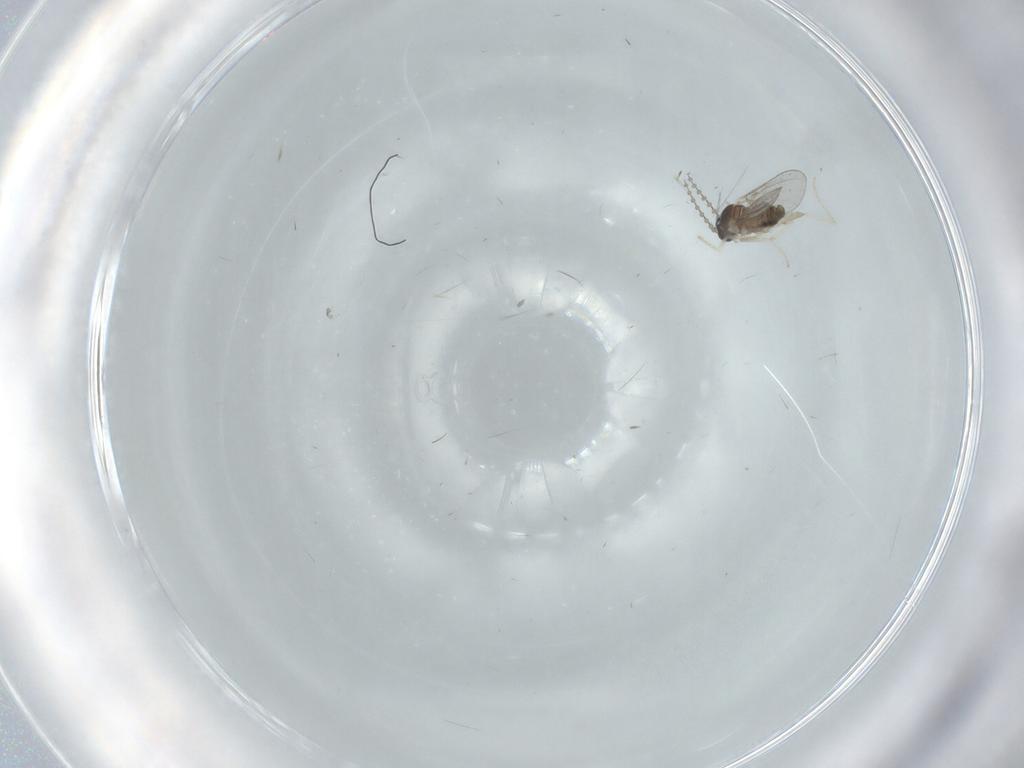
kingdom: Animalia
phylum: Arthropoda
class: Insecta
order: Diptera
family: Cecidomyiidae
